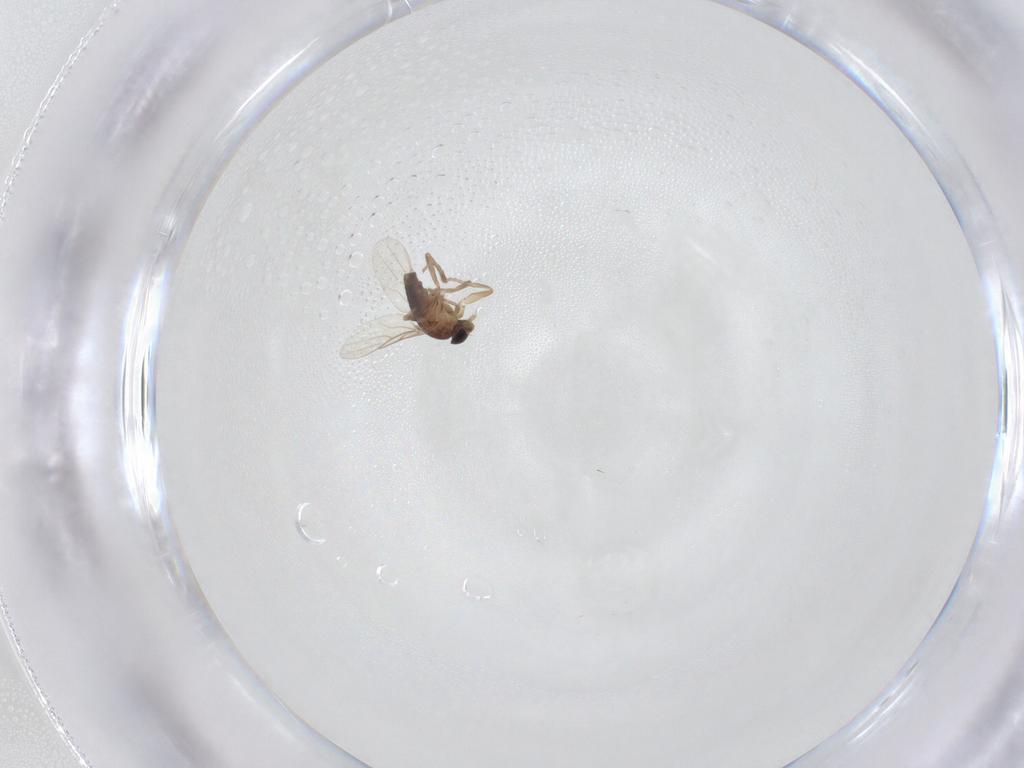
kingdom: Animalia
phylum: Arthropoda
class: Insecta
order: Diptera
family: Phoridae
